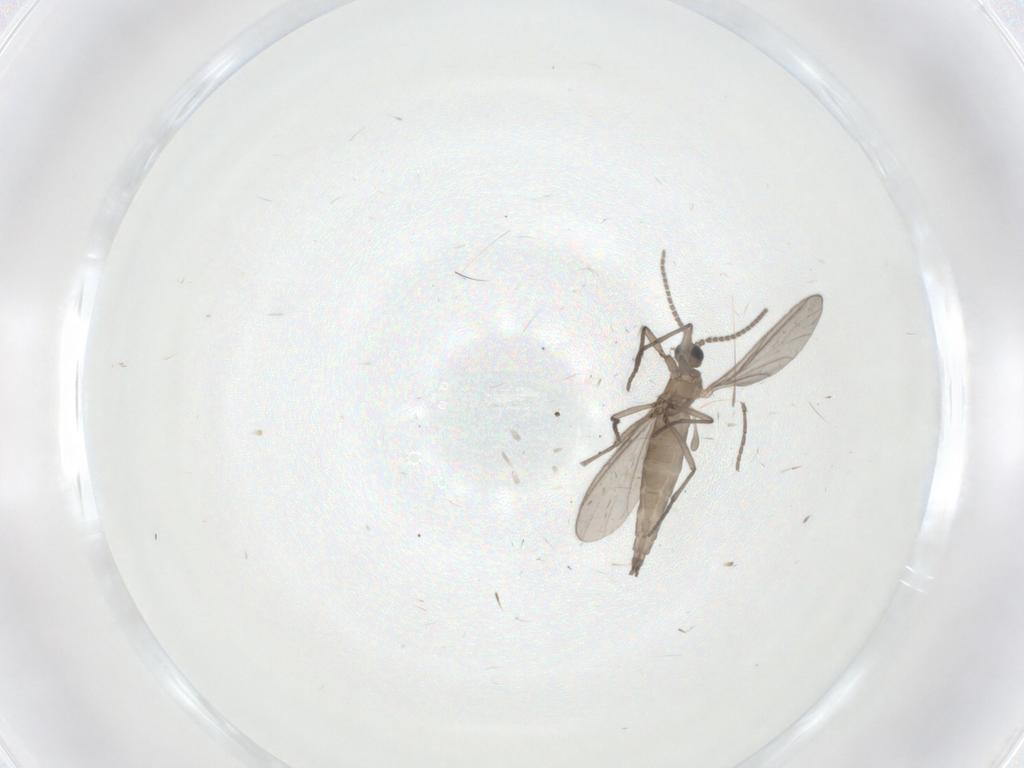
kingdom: Animalia
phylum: Arthropoda
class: Insecta
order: Diptera
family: Sciaridae
